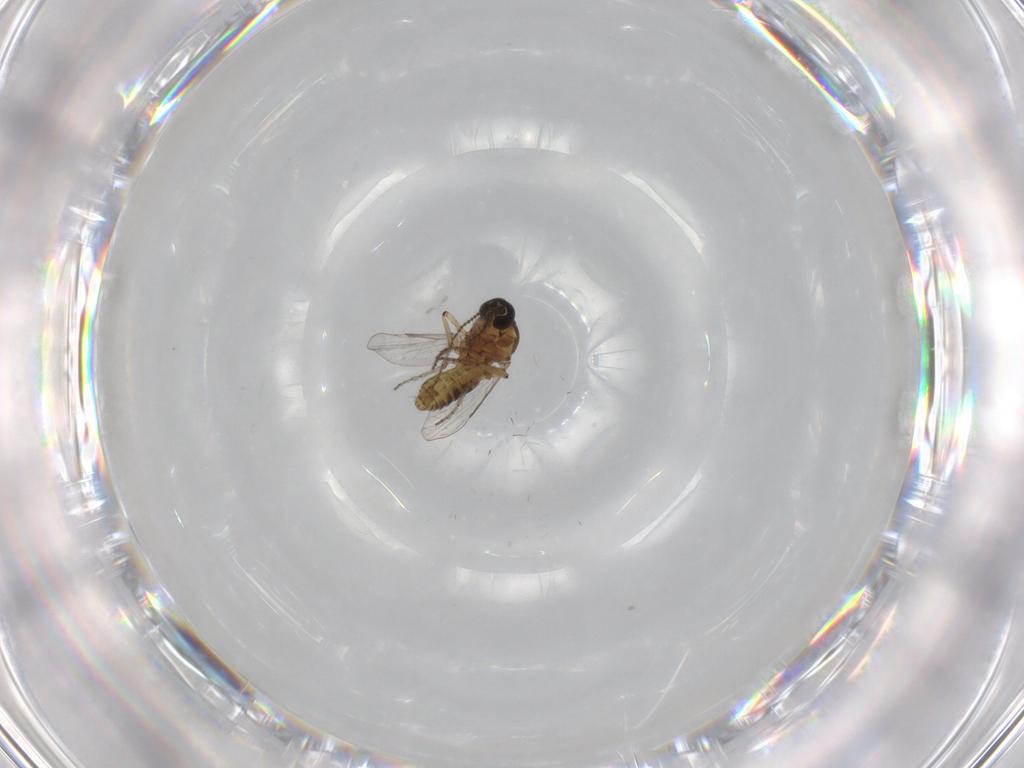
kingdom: Animalia
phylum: Arthropoda
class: Insecta
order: Diptera
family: Ceratopogonidae
